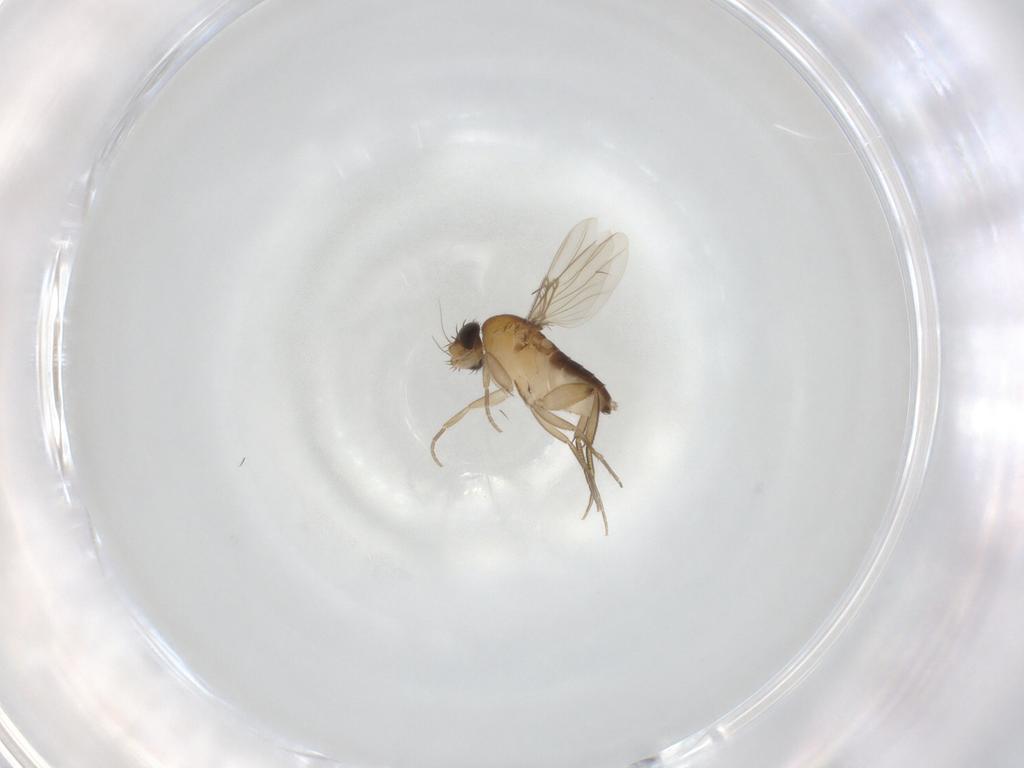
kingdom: Animalia
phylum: Arthropoda
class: Insecta
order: Diptera
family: Phoridae
